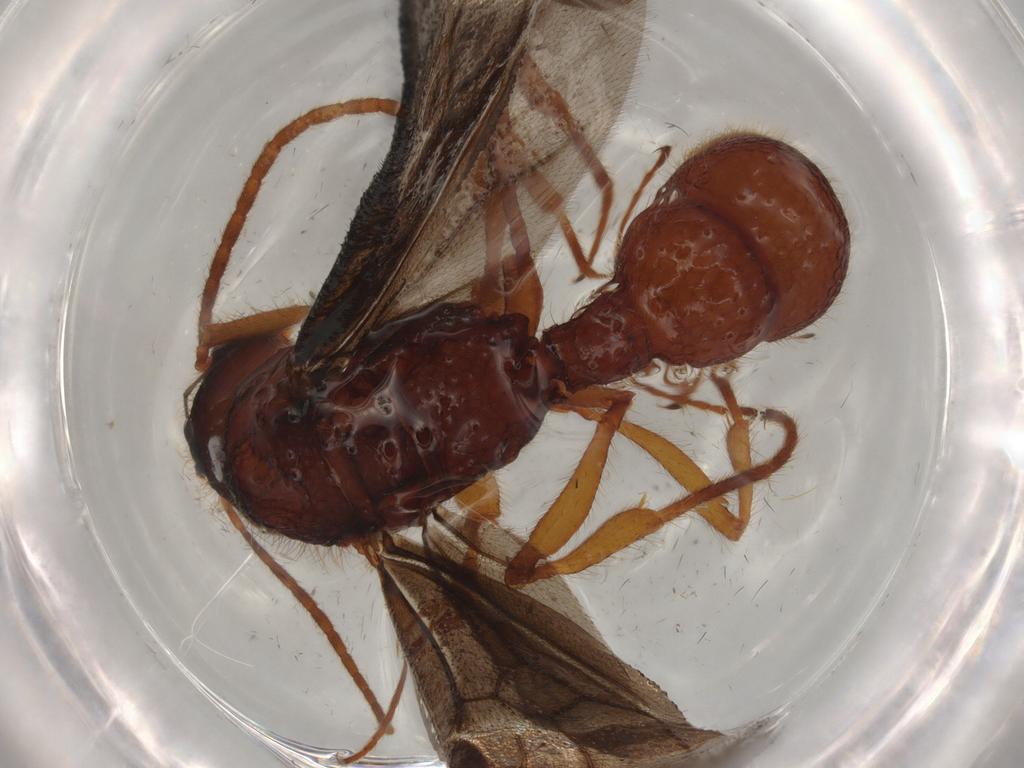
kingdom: Animalia
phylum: Arthropoda
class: Insecta
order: Hymenoptera
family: Formicidae
